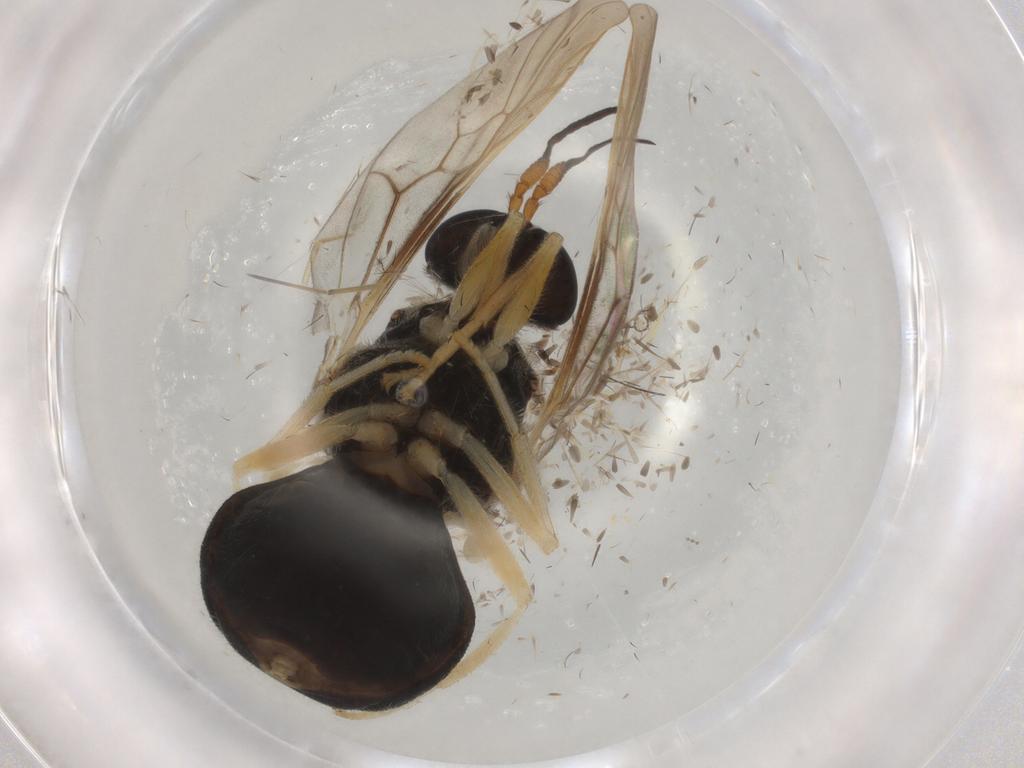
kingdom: Animalia
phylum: Arthropoda
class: Insecta
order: Diptera
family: Stratiomyidae
